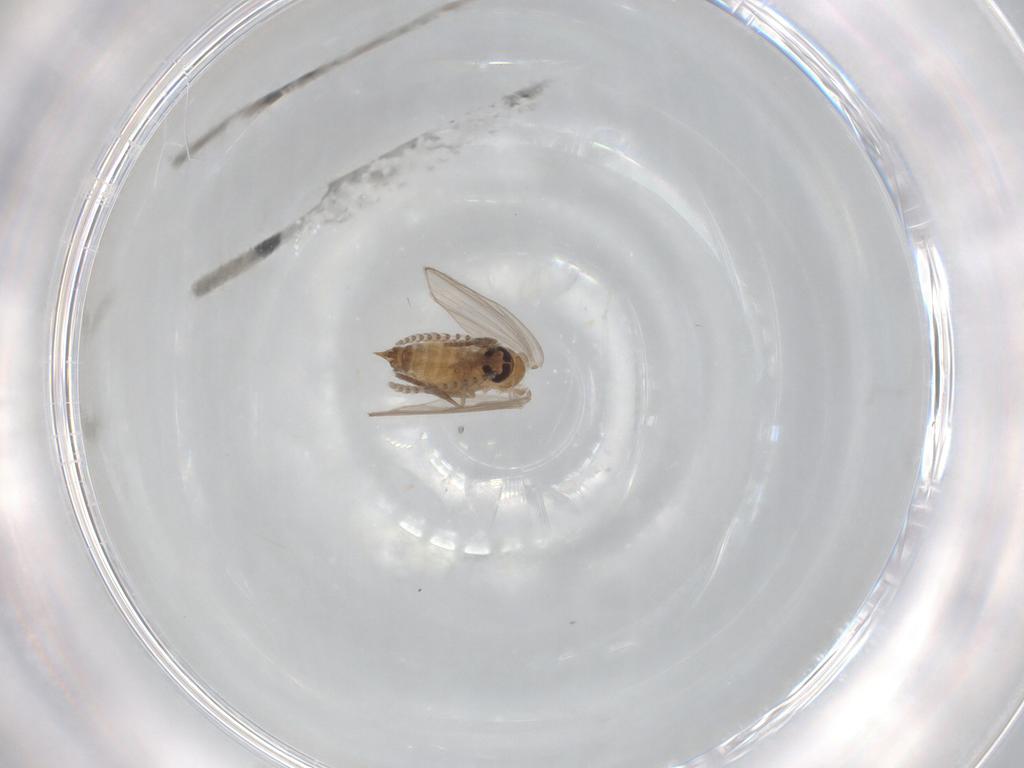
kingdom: Animalia
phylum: Arthropoda
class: Insecta
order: Diptera
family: Psychodidae
